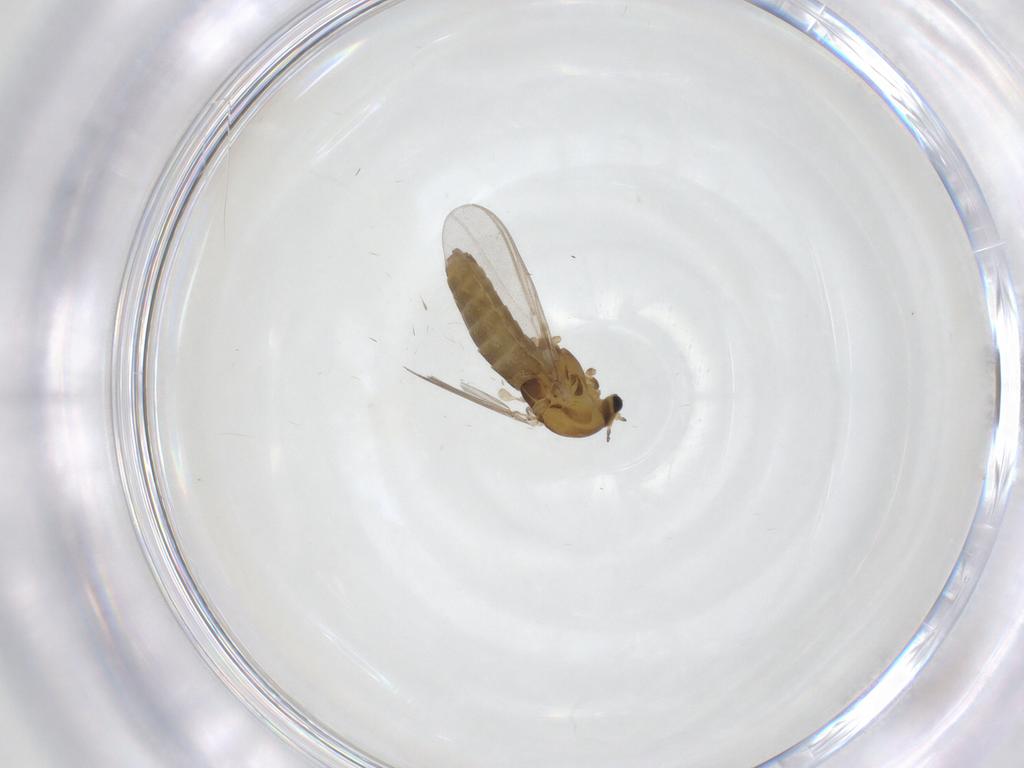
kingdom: Animalia
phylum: Arthropoda
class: Insecta
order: Diptera
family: Chironomidae
